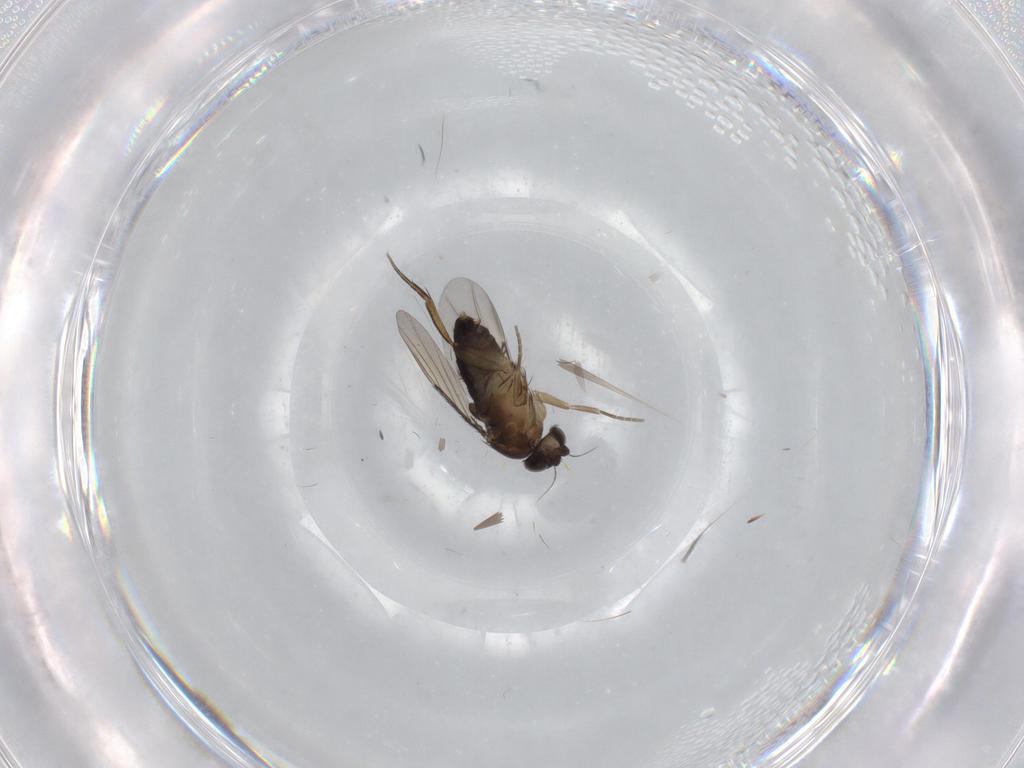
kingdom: Animalia
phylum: Arthropoda
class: Insecta
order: Diptera
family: Phoridae
